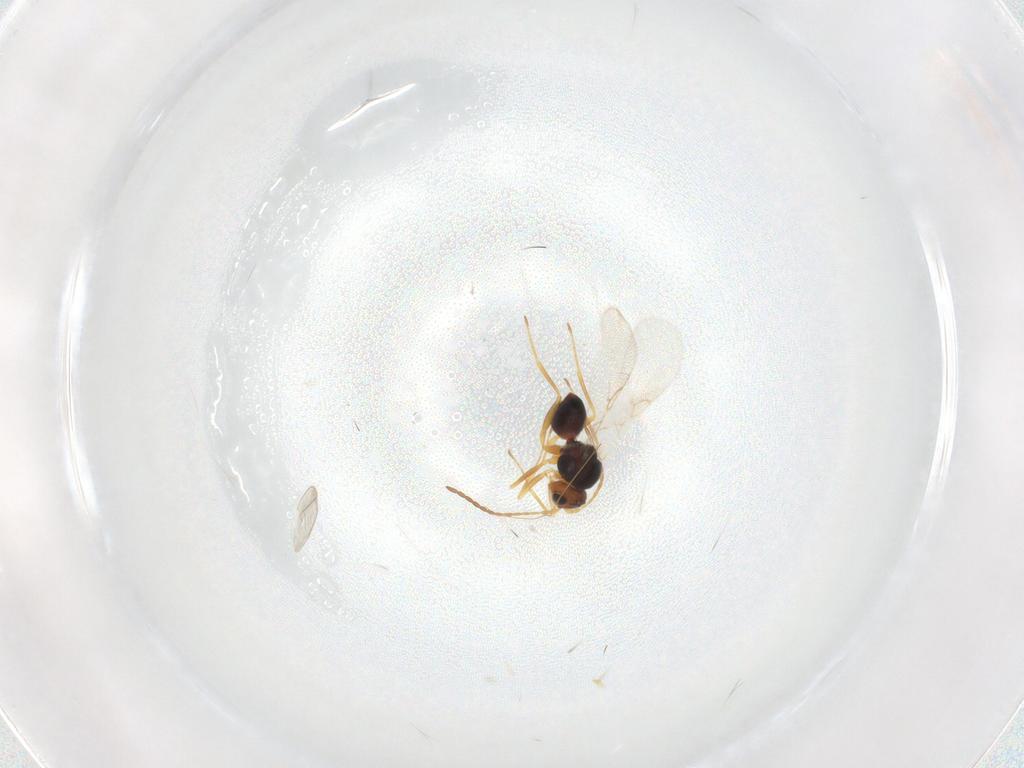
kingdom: Animalia
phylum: Arthropoda
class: Insecta
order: Hymenoptera
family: Figitidae
